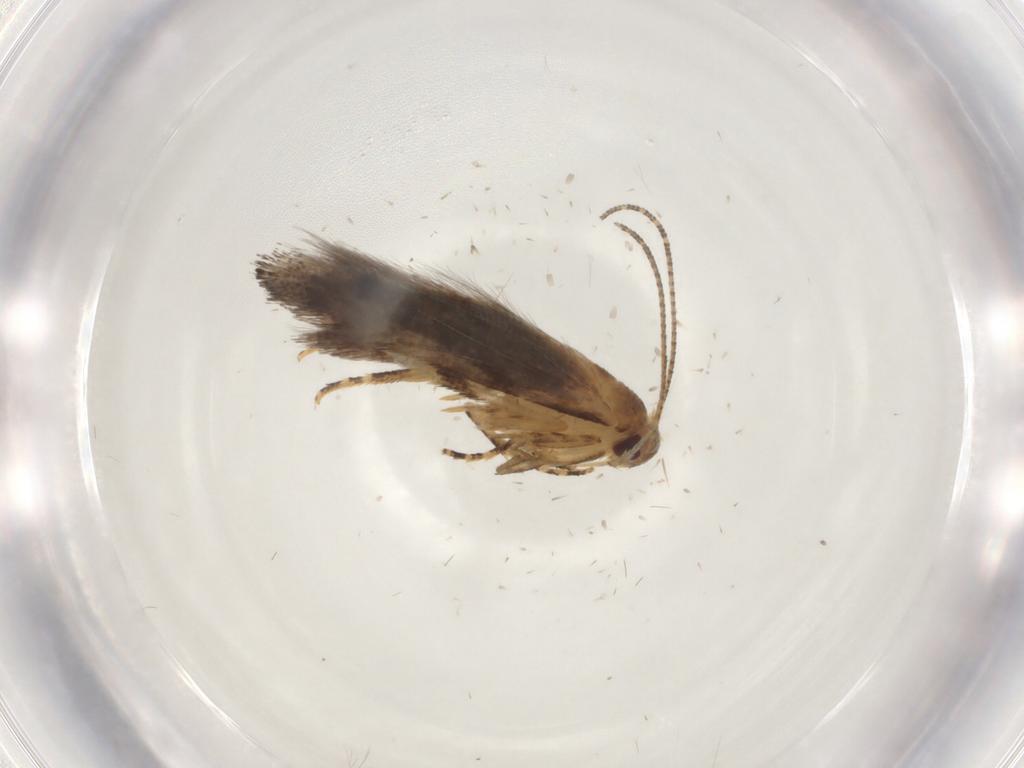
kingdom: Animalia
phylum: Arthropoda
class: Insecta
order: Lepidoptera
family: Momphidae
